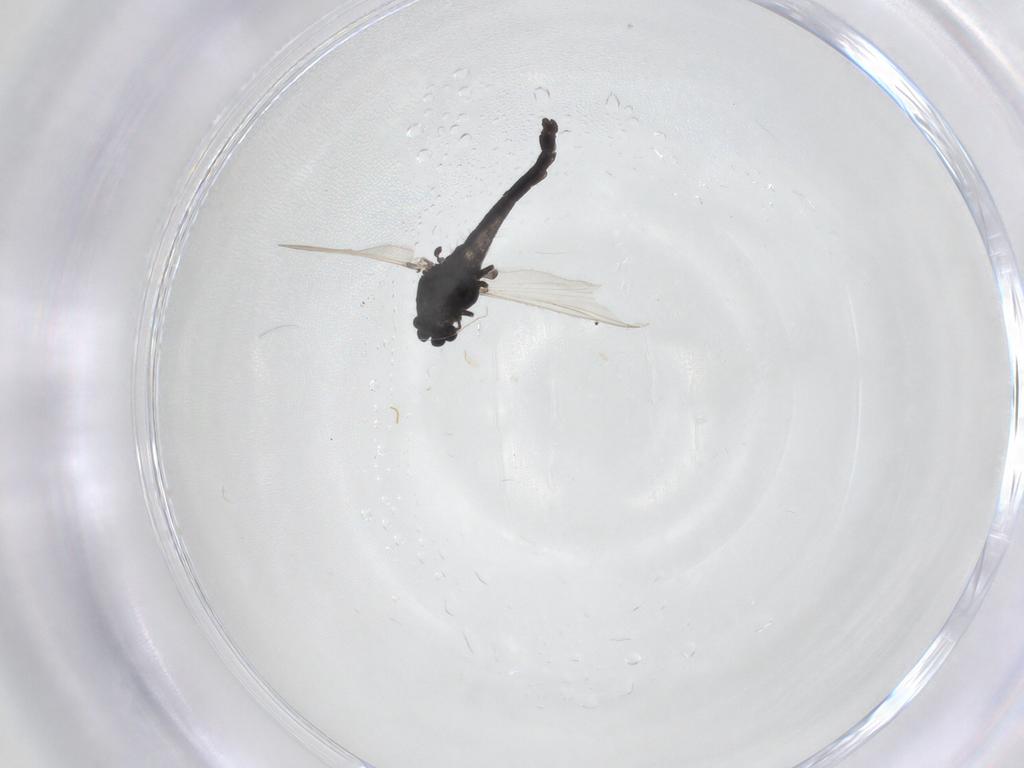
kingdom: Animalia
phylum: Arthropoda
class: Insecta
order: Diptera
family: Chironomidae
